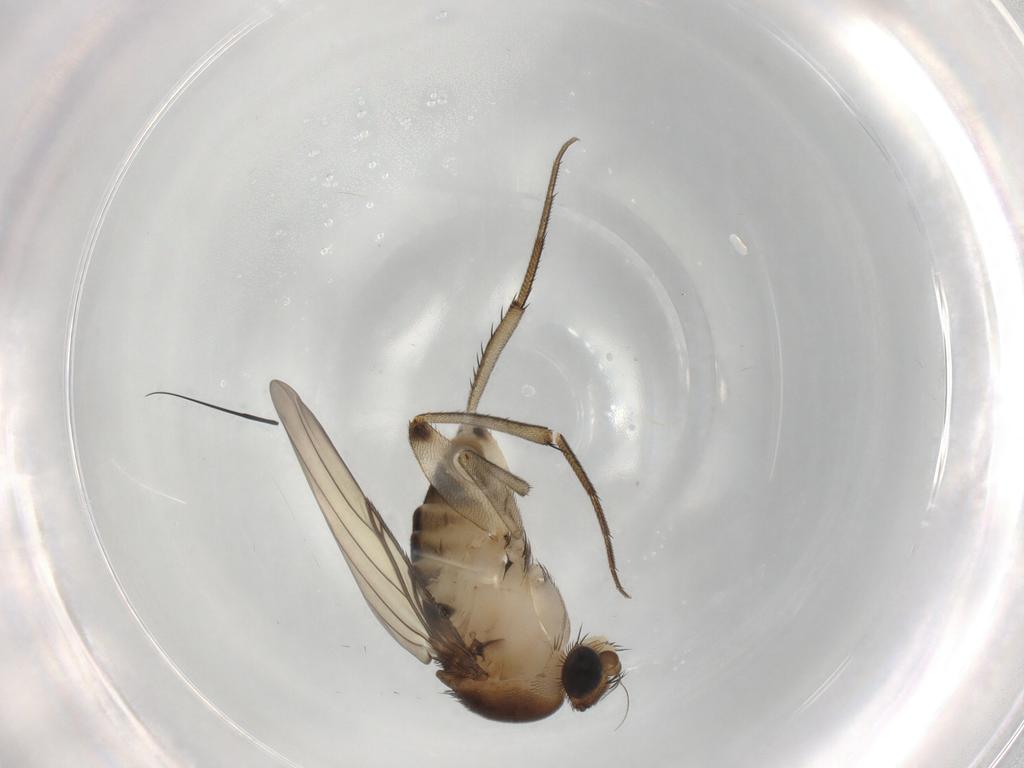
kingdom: Animalia
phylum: Arthropoda
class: Insecta
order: Diptera
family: Phoridae
